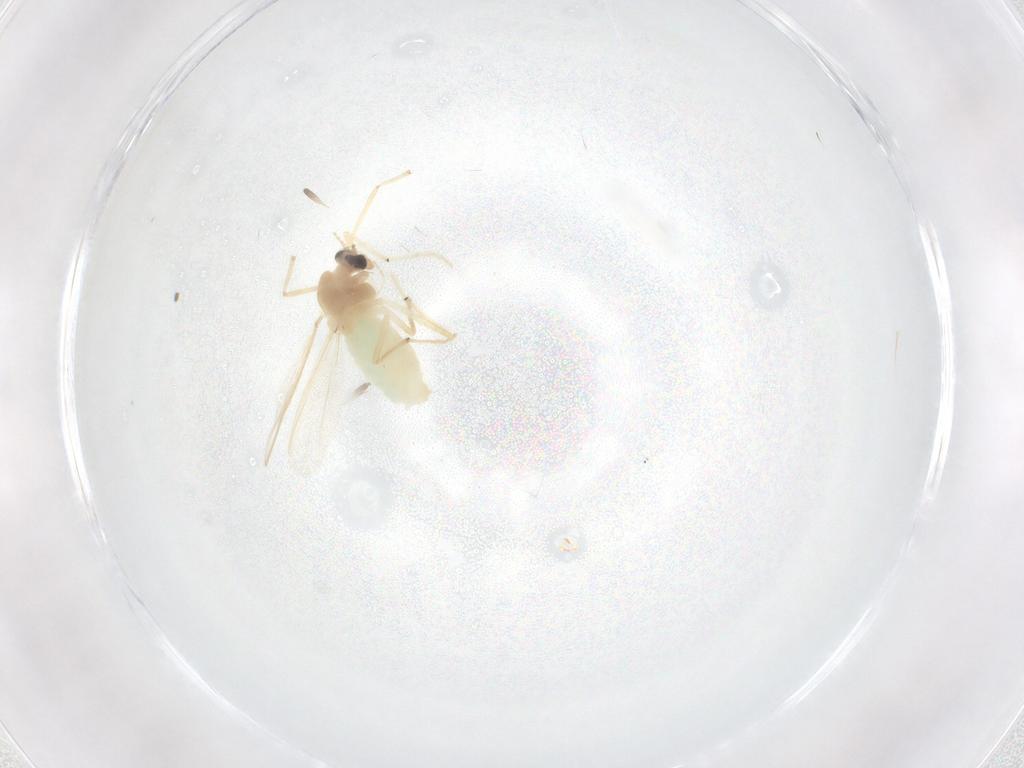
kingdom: Animalia
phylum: Arthropoda
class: Insecta
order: Diptera
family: Chironomidae
